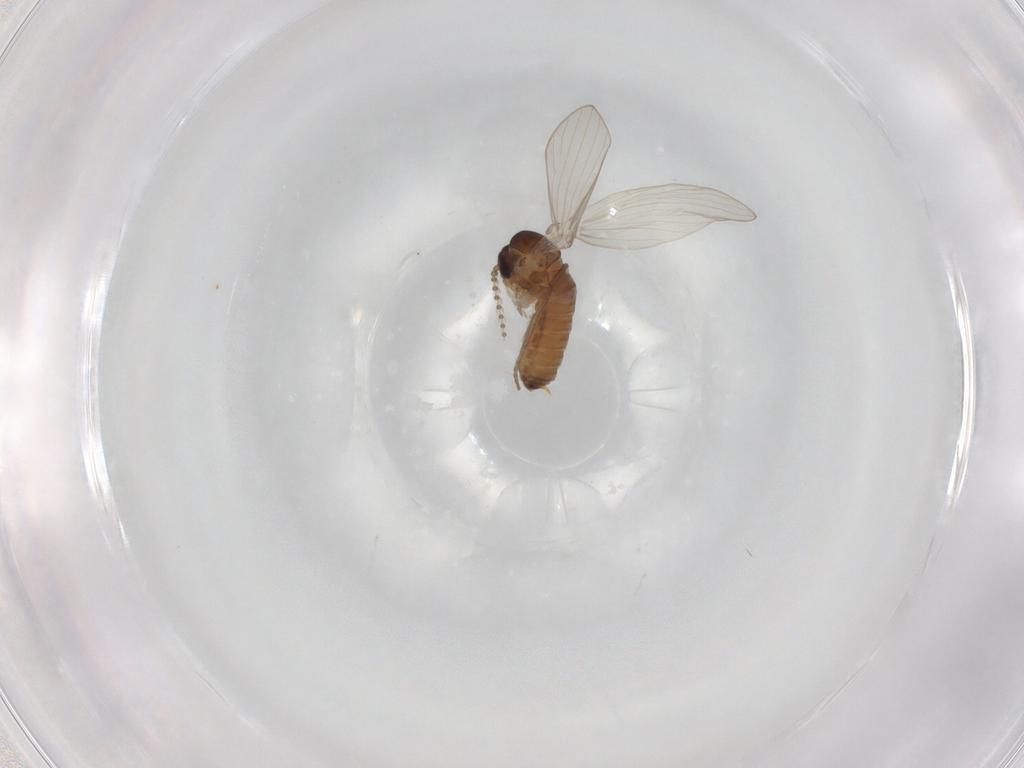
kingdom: Animalia
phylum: Arthropoda
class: Insecta
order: Diptera
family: Psychodidae
